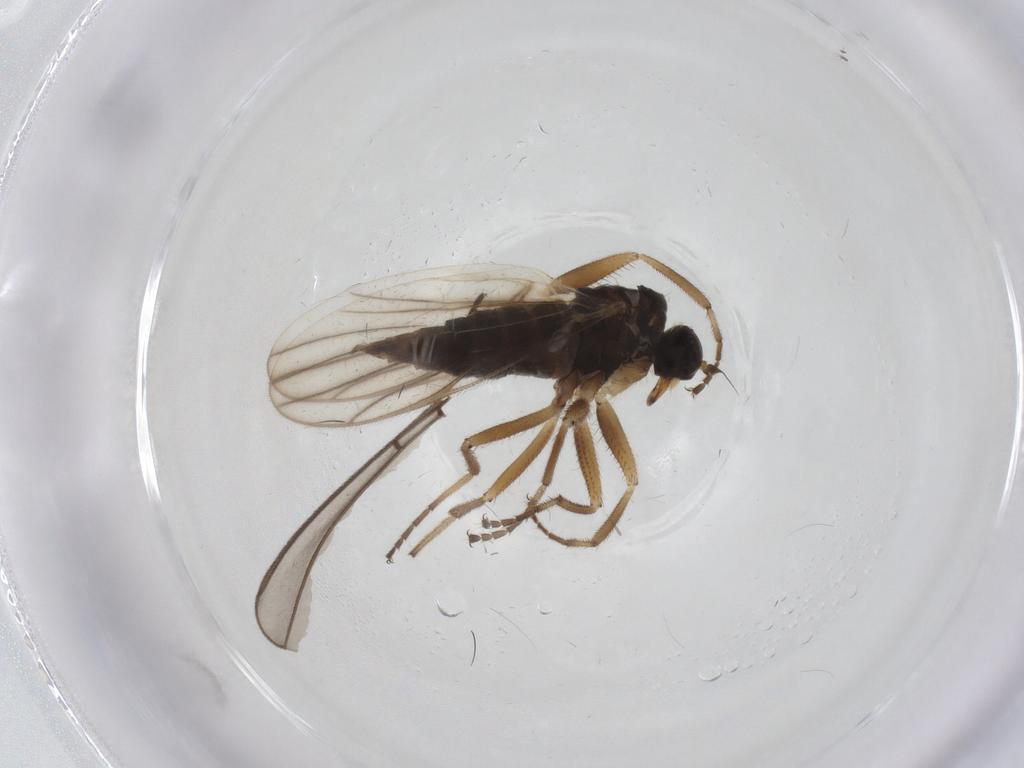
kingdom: Animalia
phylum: Arthropoda
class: Insecta
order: Diptera
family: Hybotidae
